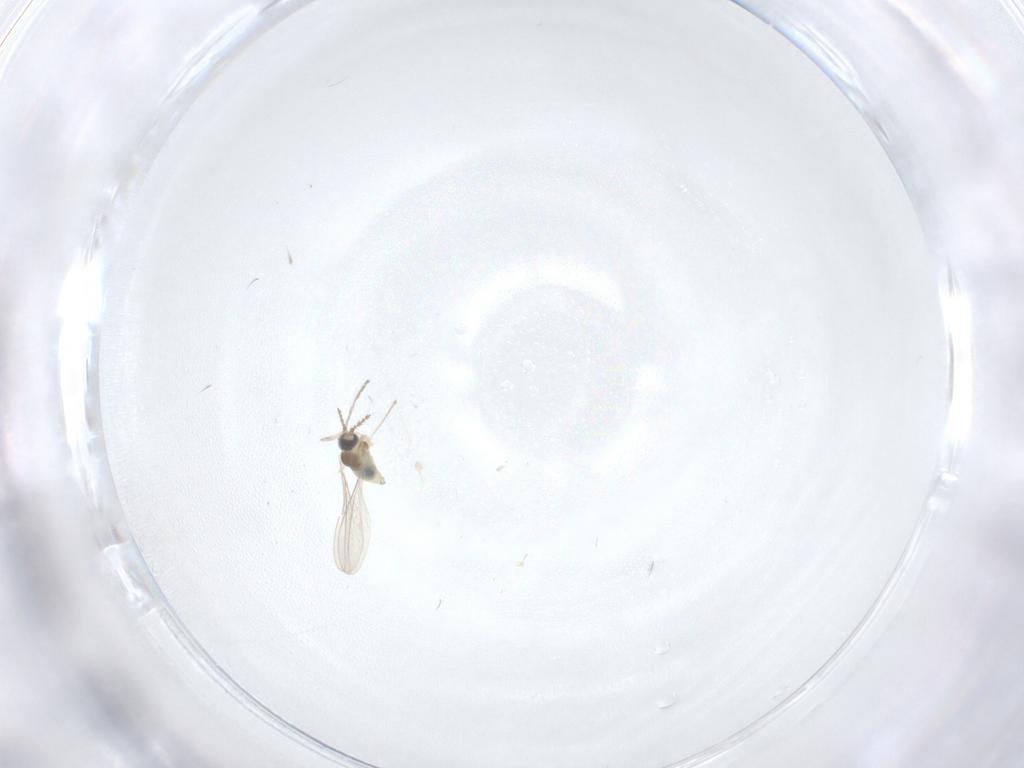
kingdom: Animalia
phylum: Arthropoda
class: Insecta
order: Diptera
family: Cecidomyiidae
